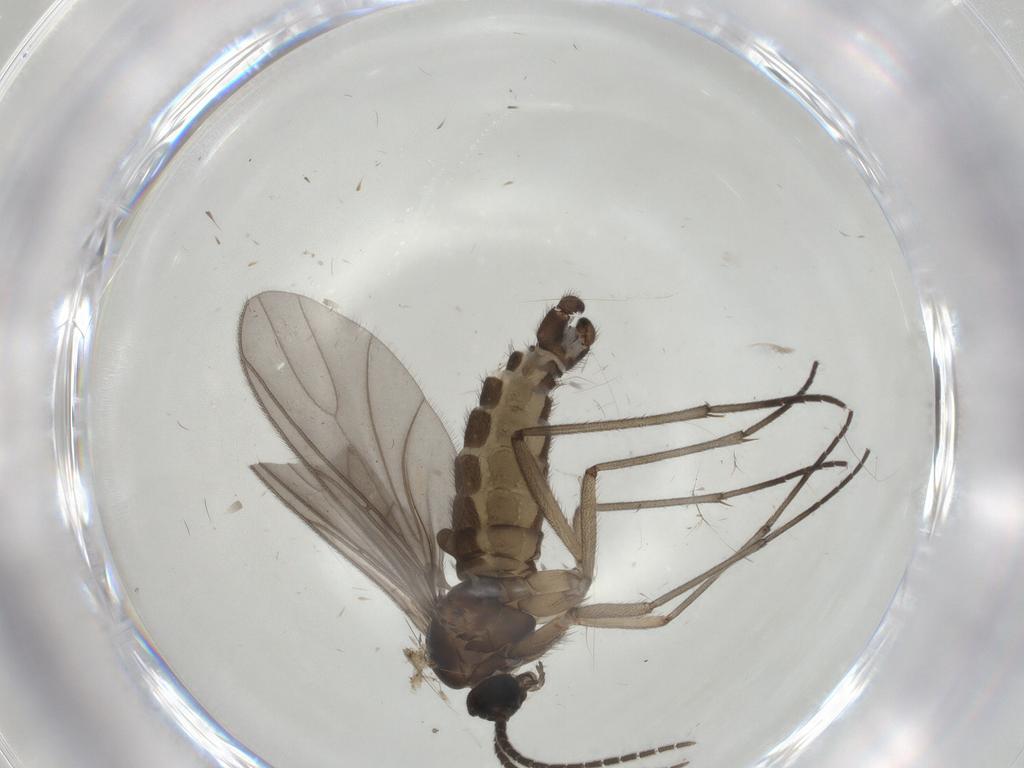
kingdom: Animalia
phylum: Arthropoda
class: Insecta
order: Diptera
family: Sciaridae
